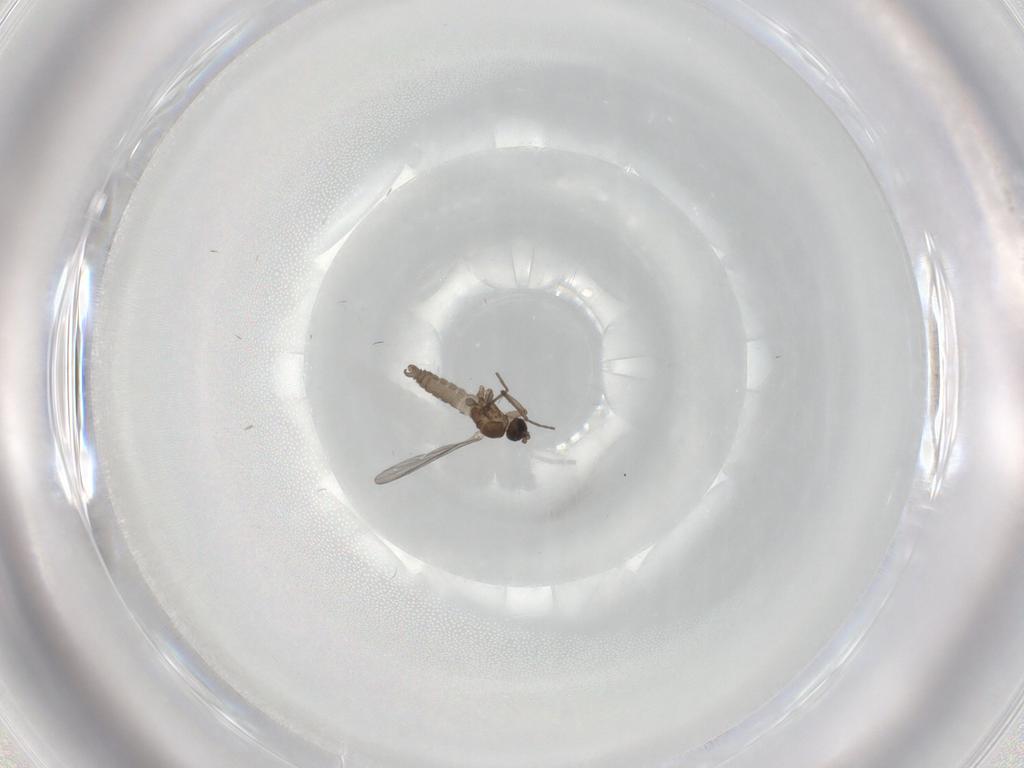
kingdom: Animalia
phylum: Arthropoda
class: Insecta
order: Diptera
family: Sciaridae
